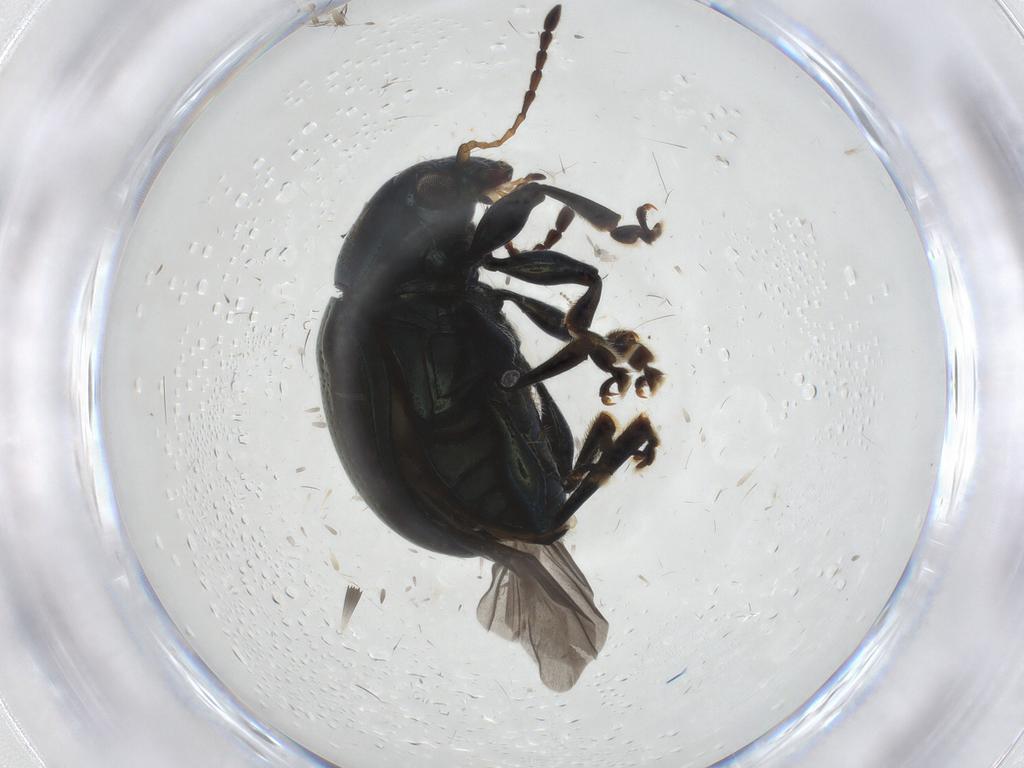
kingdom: Animalia
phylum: Arthropoda
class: Insecta
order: Coleoptera
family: Chrysomelidae
